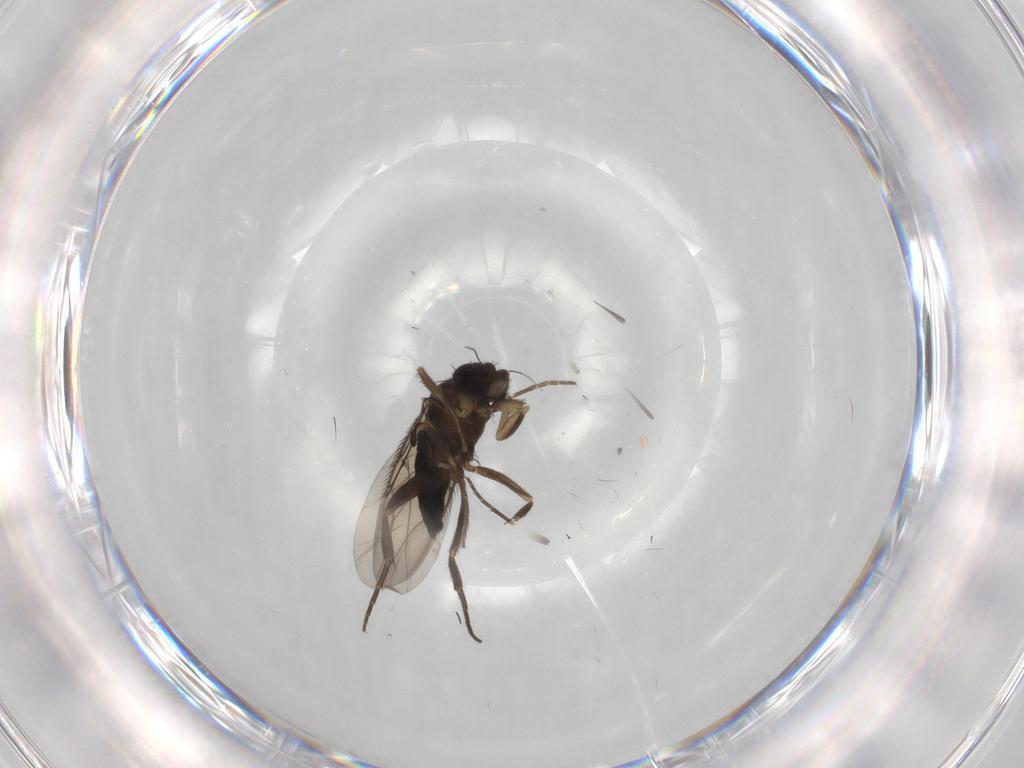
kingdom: Animalia
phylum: Arthropoda
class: Insecta
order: Diptera
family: Phoridae
